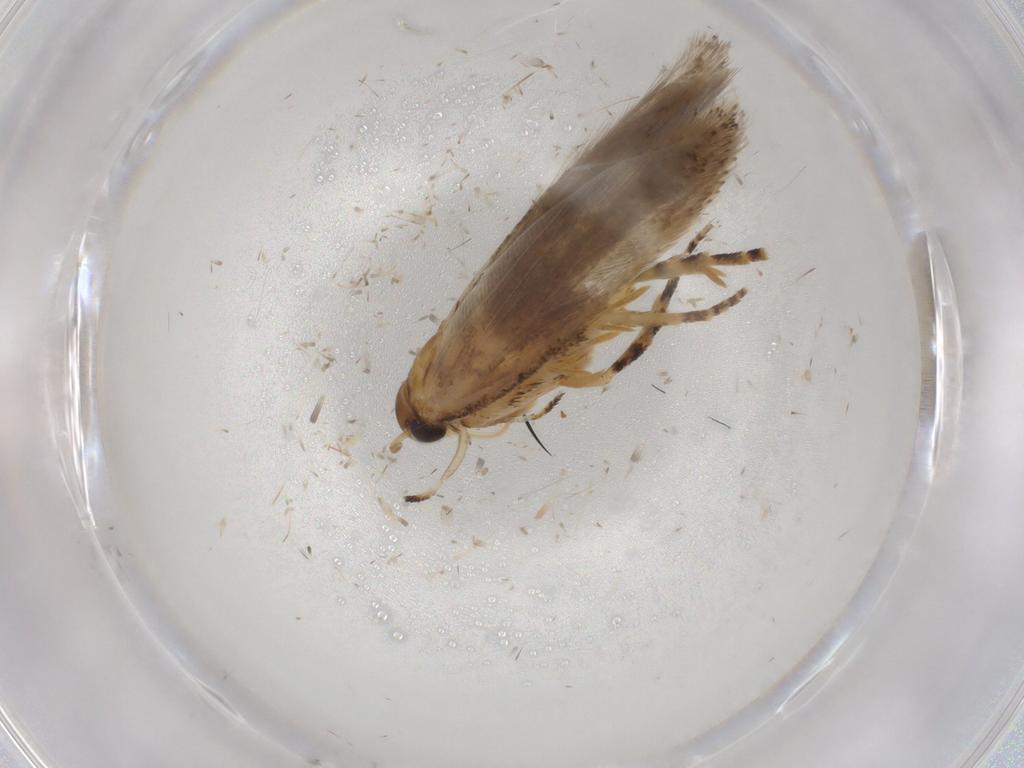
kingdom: Animalia
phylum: Arthropoda
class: Insecta
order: Lepidoptera
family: Gelechiidae
